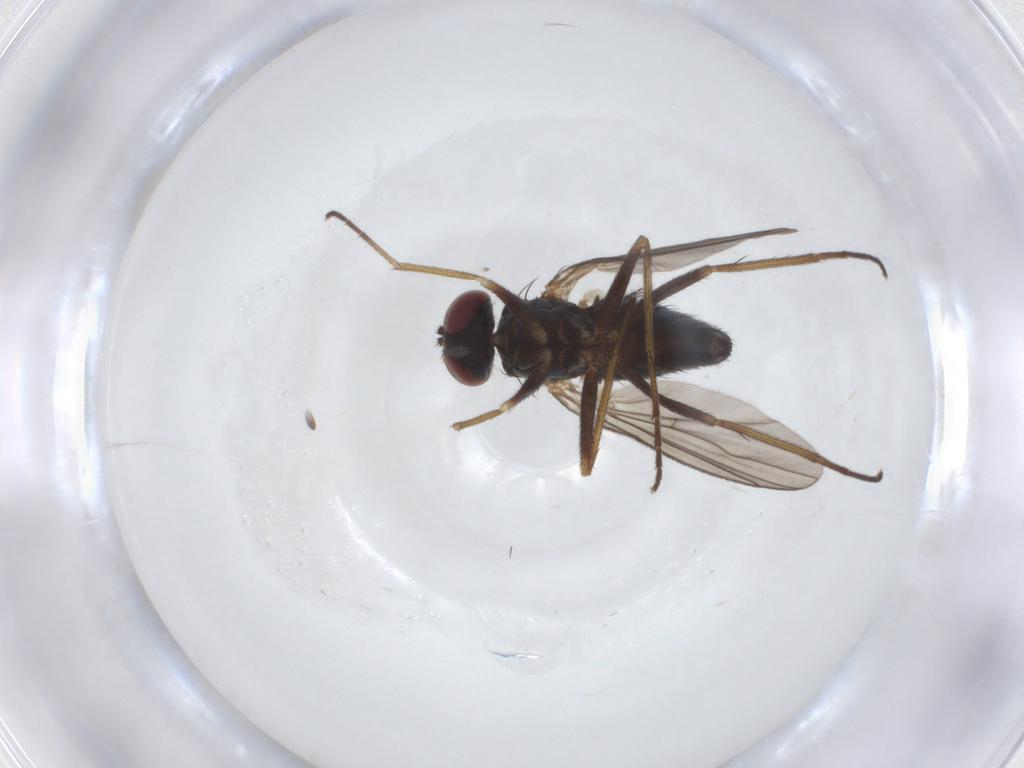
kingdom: Animalia
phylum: Arthropoda
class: Insecta
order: Diptera
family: Dolichopodidae
